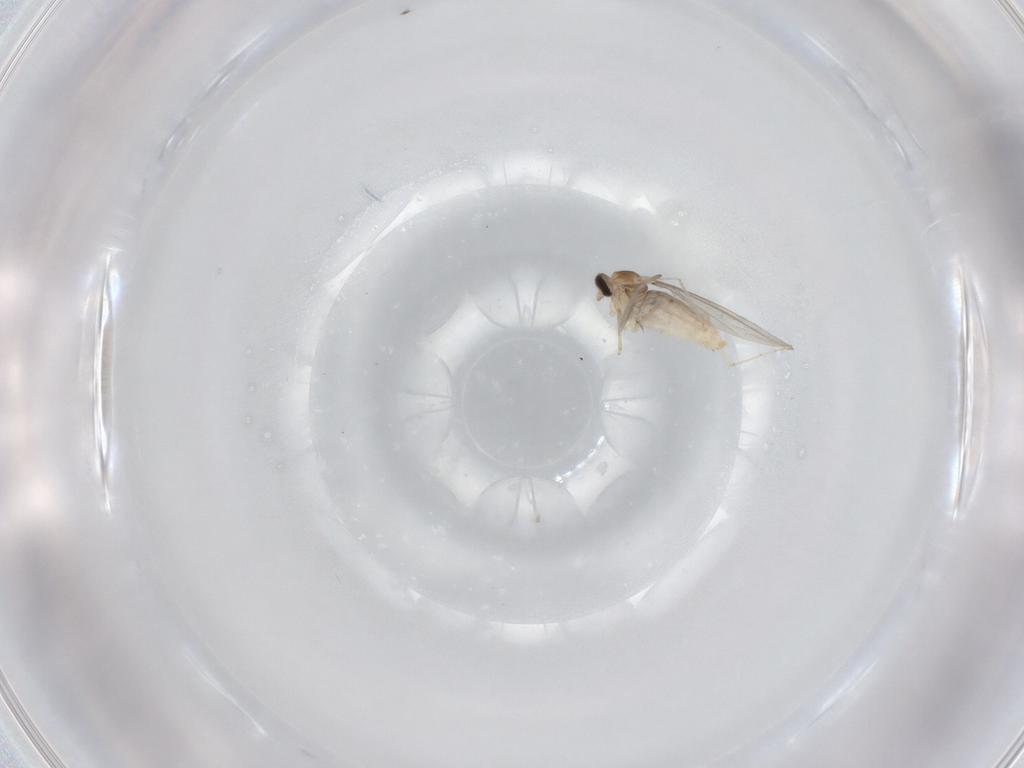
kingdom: Animalia
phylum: Arthropoda
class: Insecta
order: Diptera
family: Cecidomyiidae
